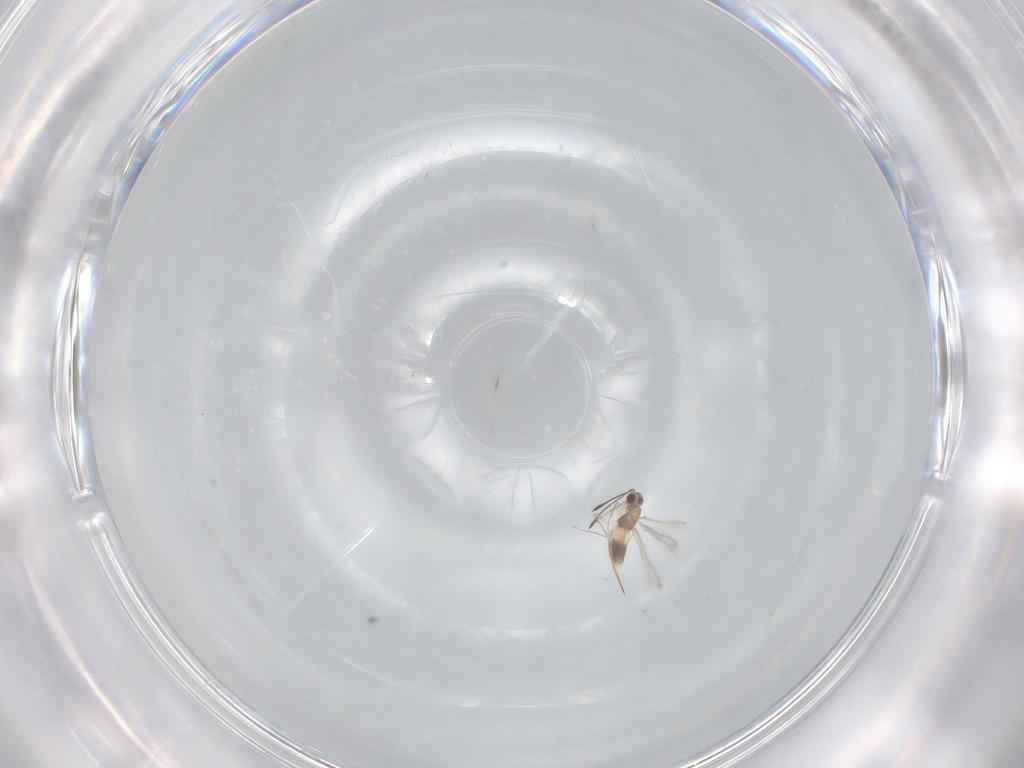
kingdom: Animalia
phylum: Arthropoda
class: Insecta
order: Hymenoptera
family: Mymaridae
